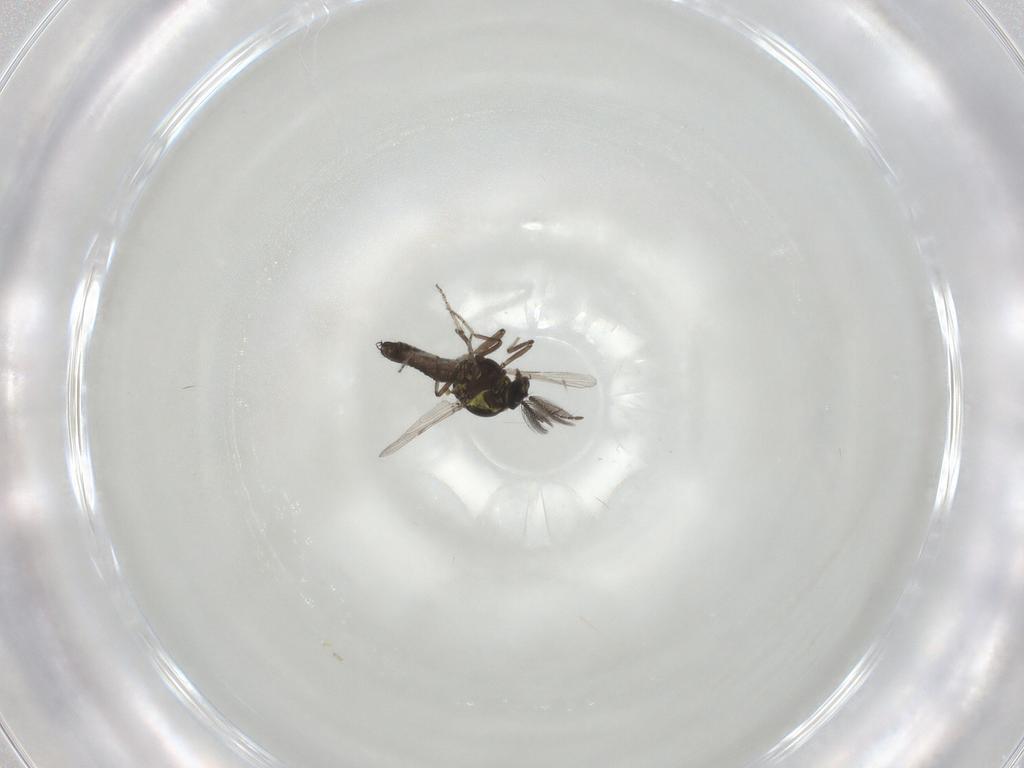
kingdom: Animalia
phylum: Arthropoda
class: Insecta
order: Diptera
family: Ceratopogonidae
